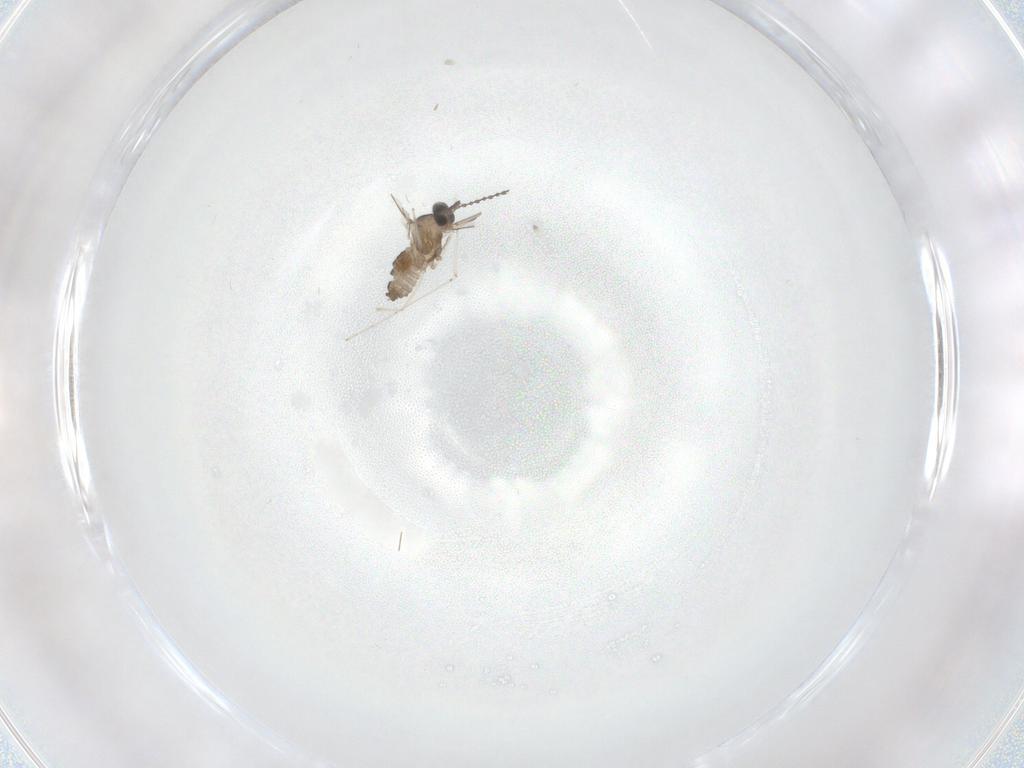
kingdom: Animalia
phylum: Arthropoda
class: Insecta
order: Diptera
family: Cecidomyiidae
